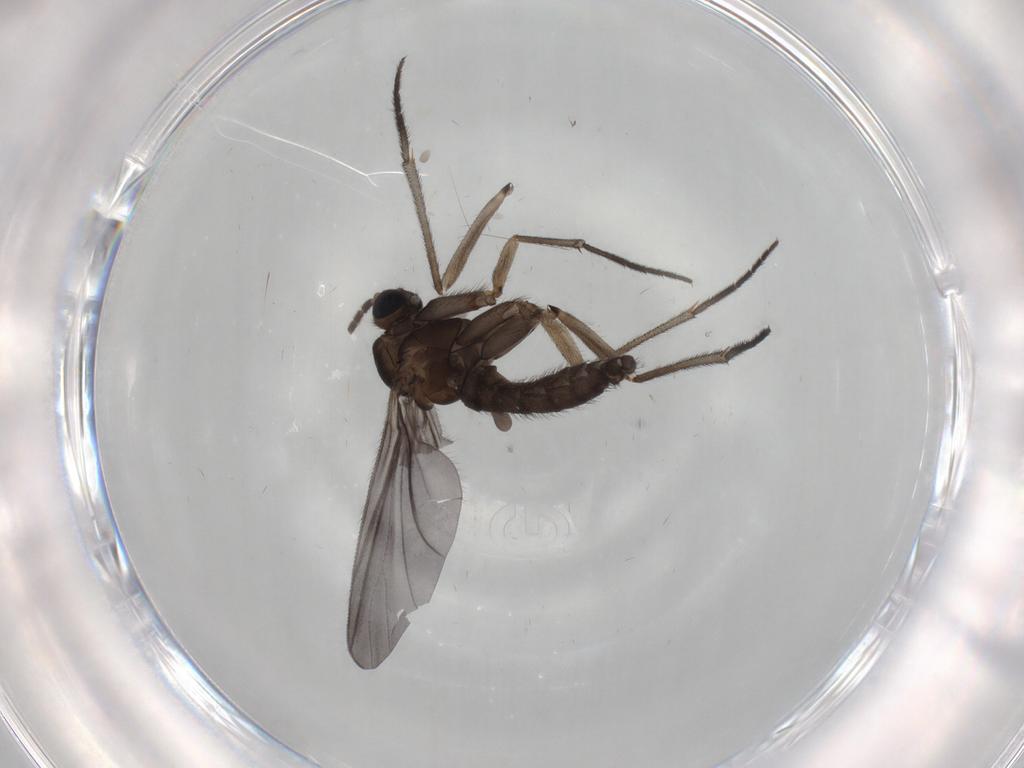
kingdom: Animalia
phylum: Arthropoda
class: Insecta
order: Diptera
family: Sciaridae
